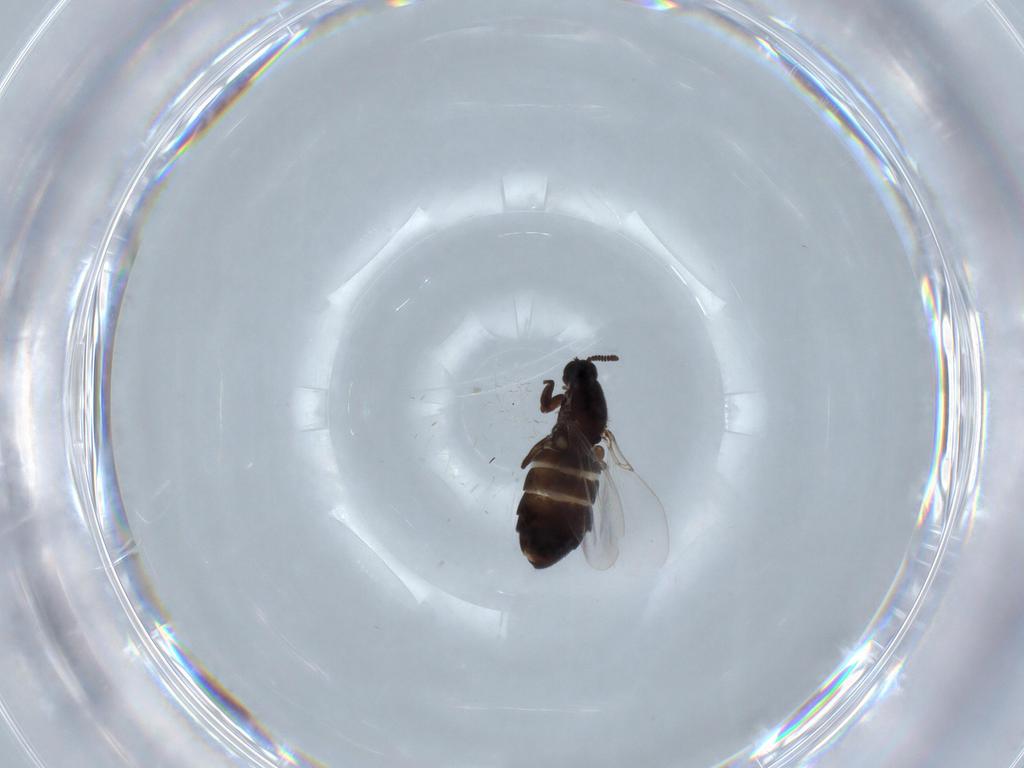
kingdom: Animalia
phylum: Arthropoda
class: Insecta
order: Diptera
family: Scatopsidae
